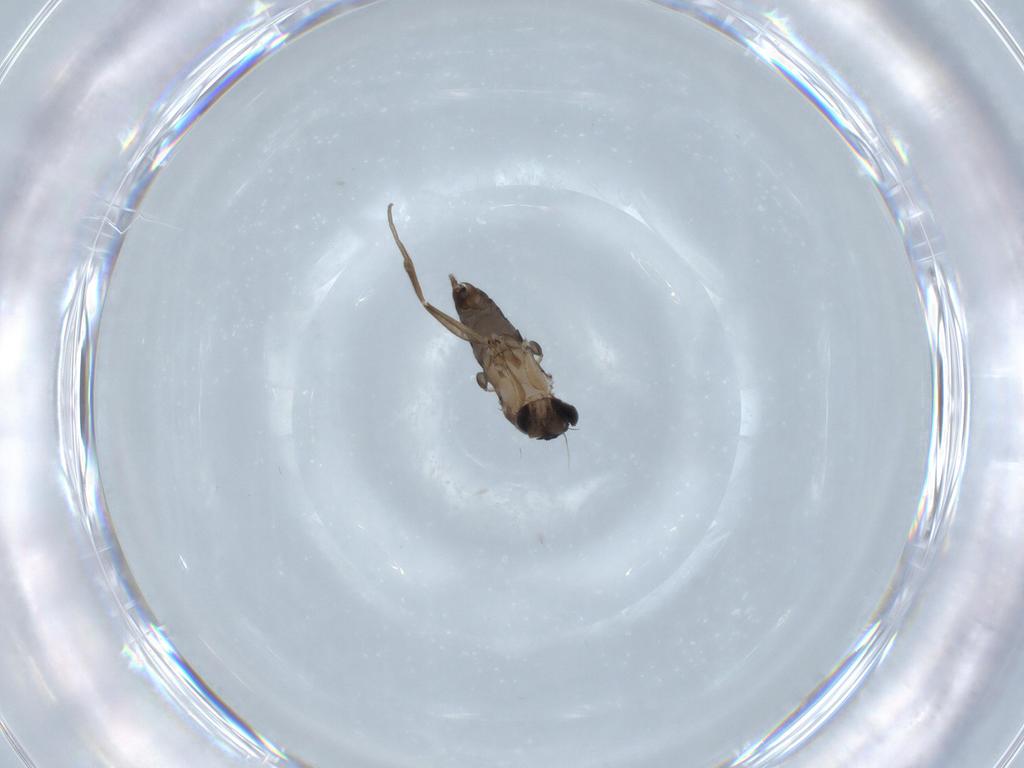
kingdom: Animalia
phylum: Arthropoda
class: Insecta
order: Diptera
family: Phoridae
